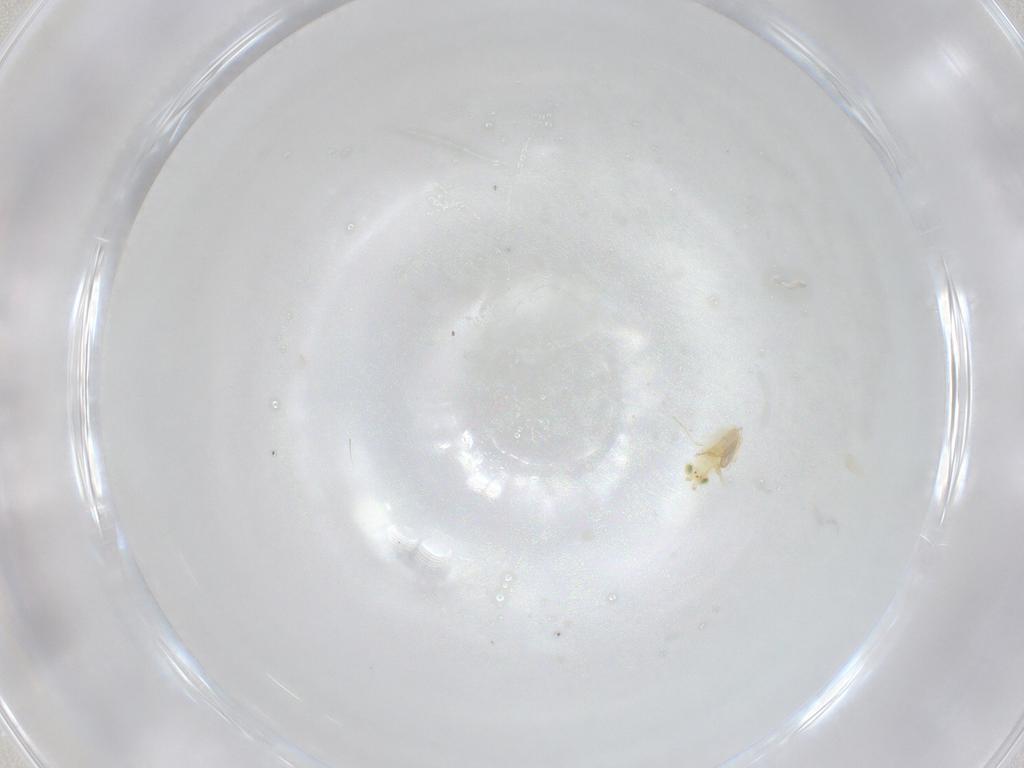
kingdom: Animalia
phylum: Arthropoda
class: Insecta
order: Hymenoptera
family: Aphelinidae
